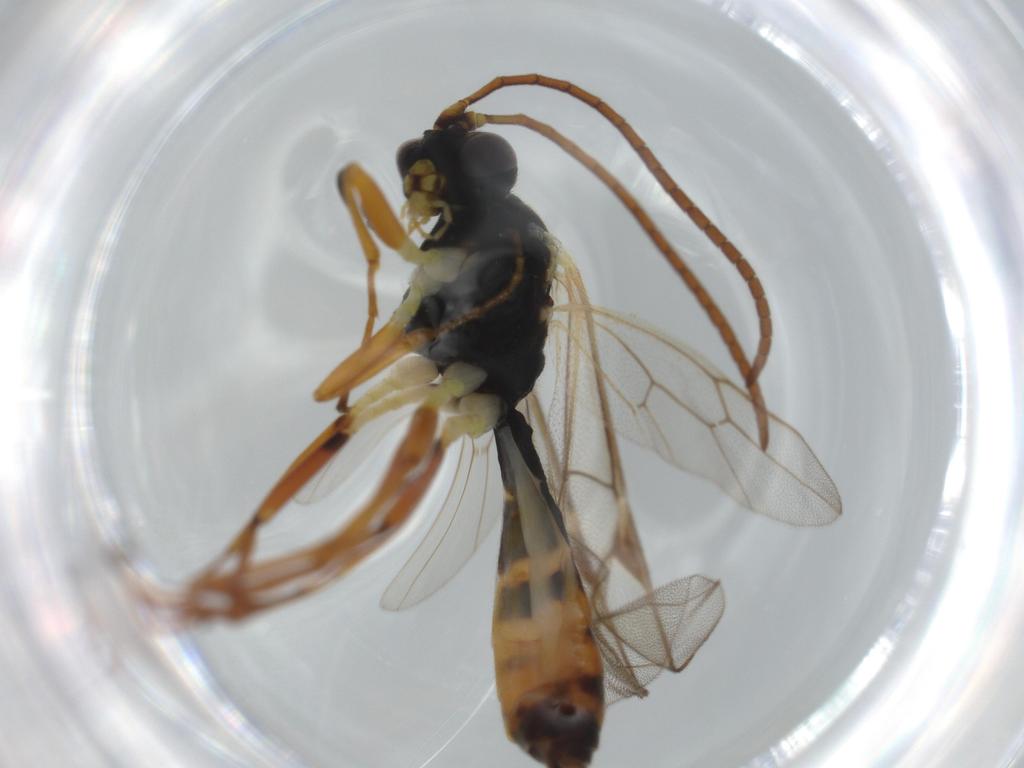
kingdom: Animalia
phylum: Arthropoda
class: Insecta
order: Hymenoptera
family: Ichneumonidae
